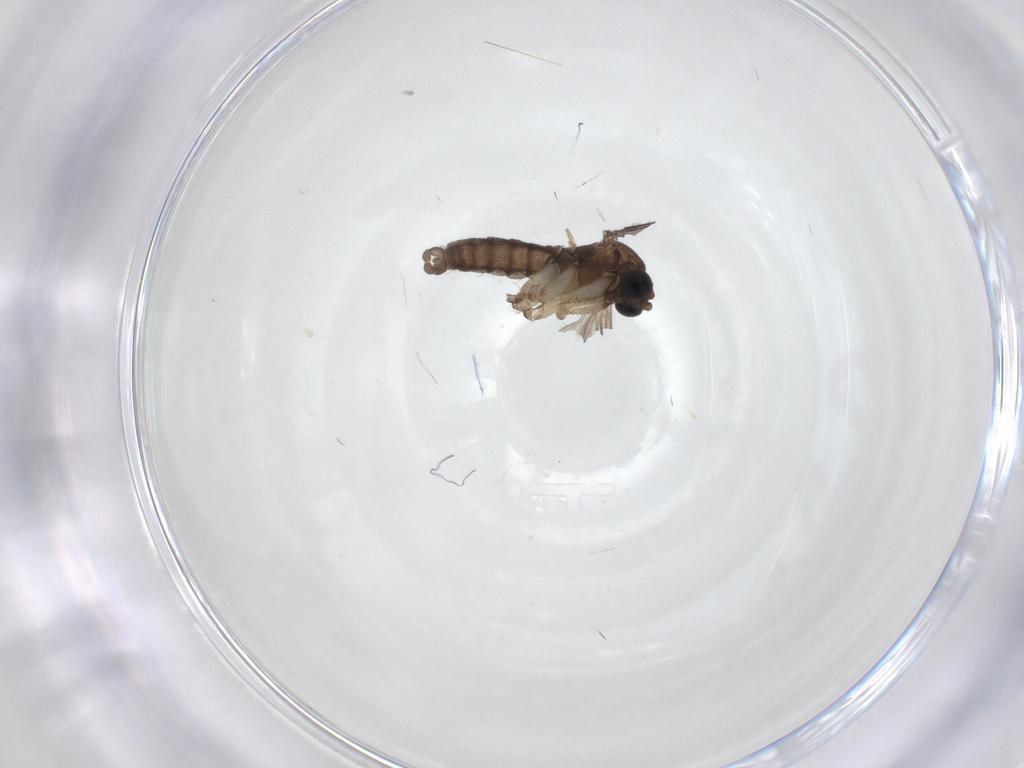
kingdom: Animalia
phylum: Arthropoda
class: Insecta
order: Diptera
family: Sciaridae
